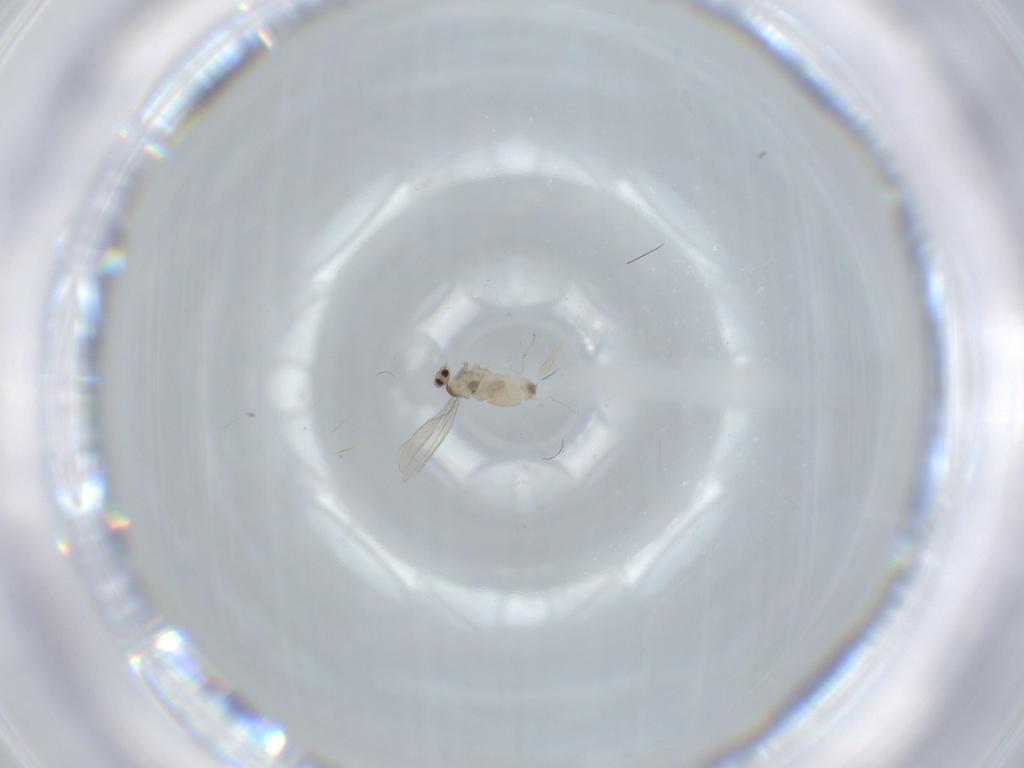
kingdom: Animalia
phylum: Arthropoda
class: Insecta
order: Diptera
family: Cecidomyiidae
